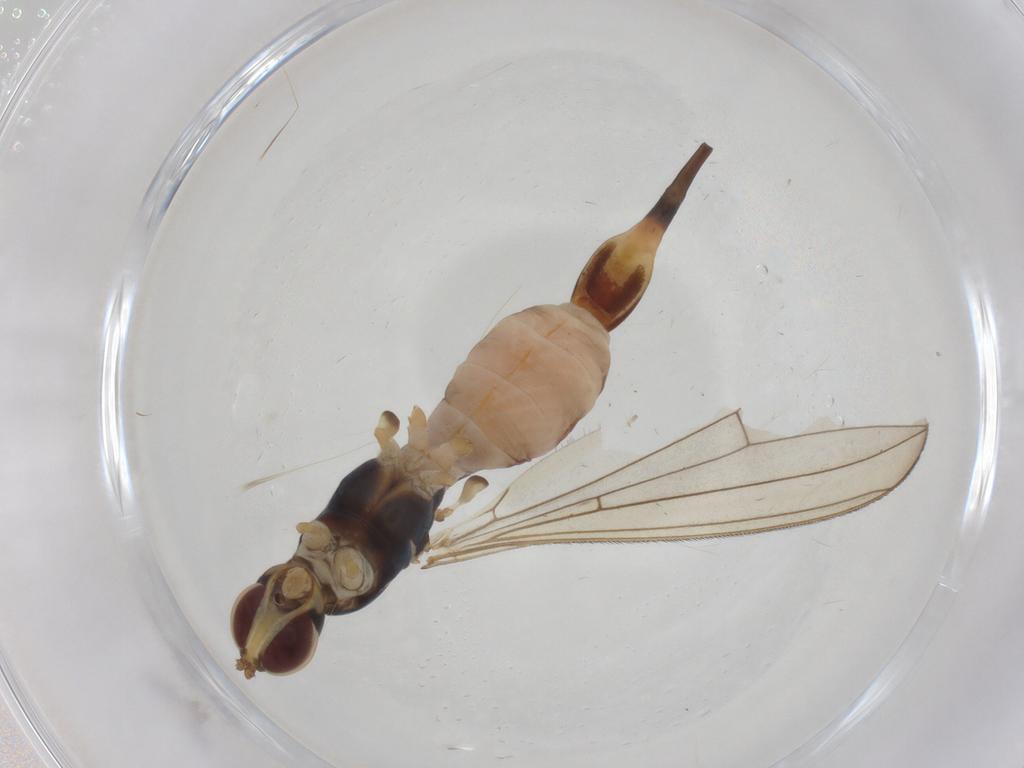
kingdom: Animalia
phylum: Arthropoda
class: Insecta
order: Diptera
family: Micropezidae
